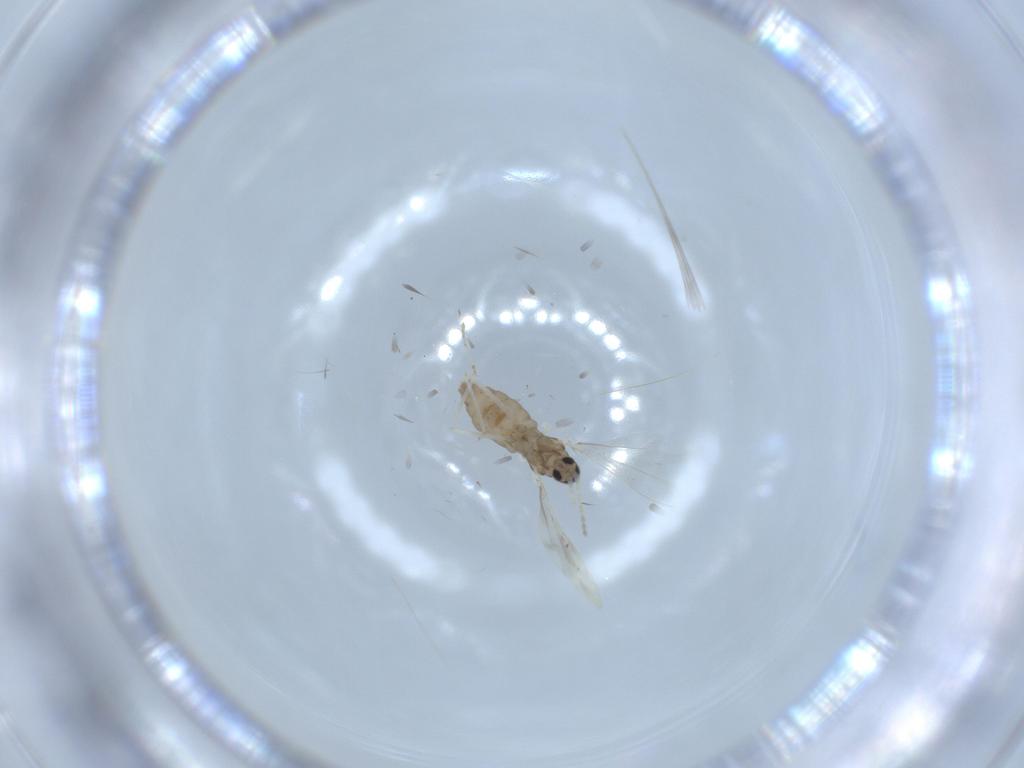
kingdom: Animalia
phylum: Arthropoda
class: Insecta
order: Diptera
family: Cecidomyiidae
